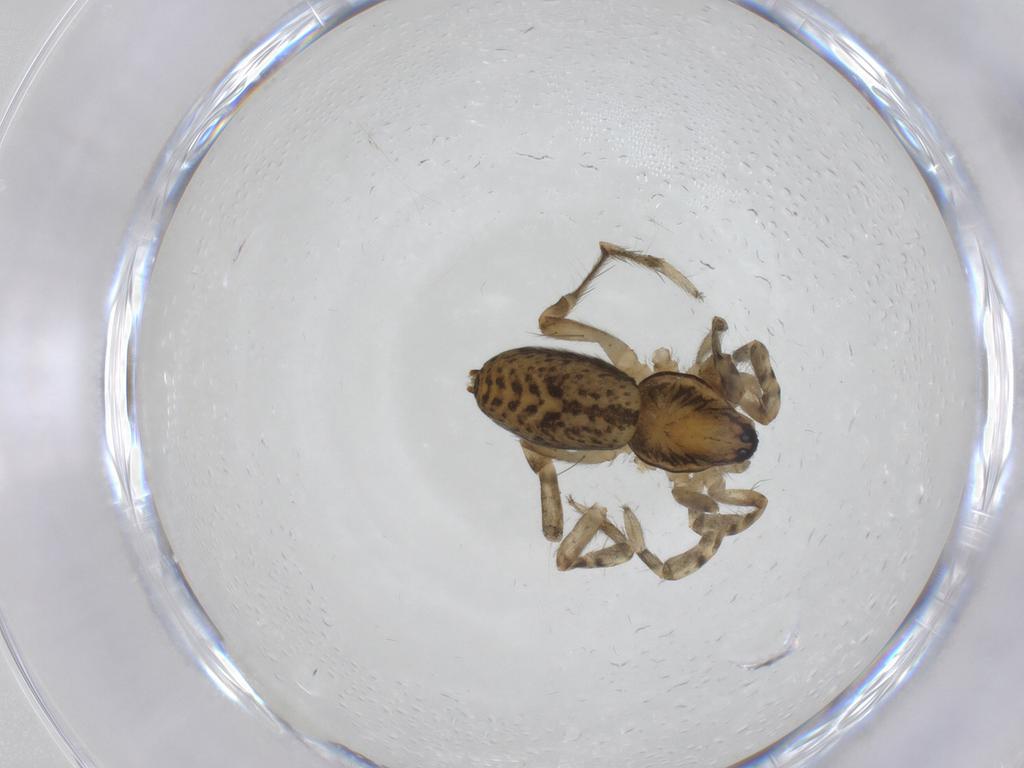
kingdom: Animalia
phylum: Arthropoda
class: Arachnida
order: Araneae
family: Anyphaenidae
